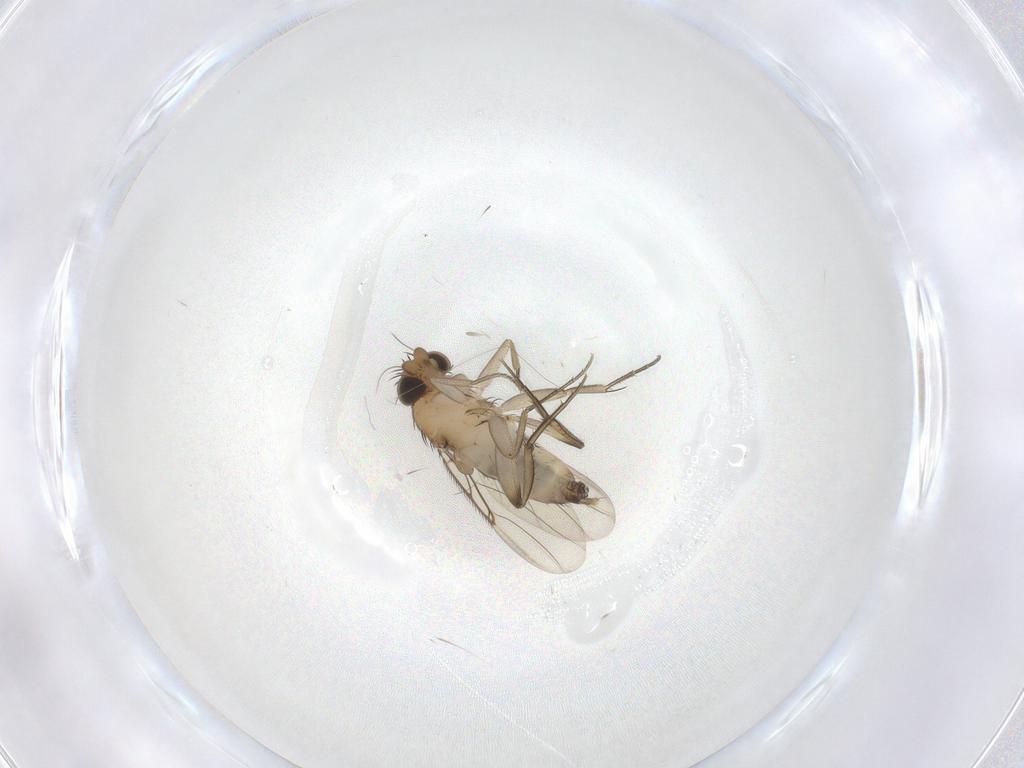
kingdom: Animalia
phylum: Arthropoda
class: Insecta
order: Diptera
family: Phoridae
